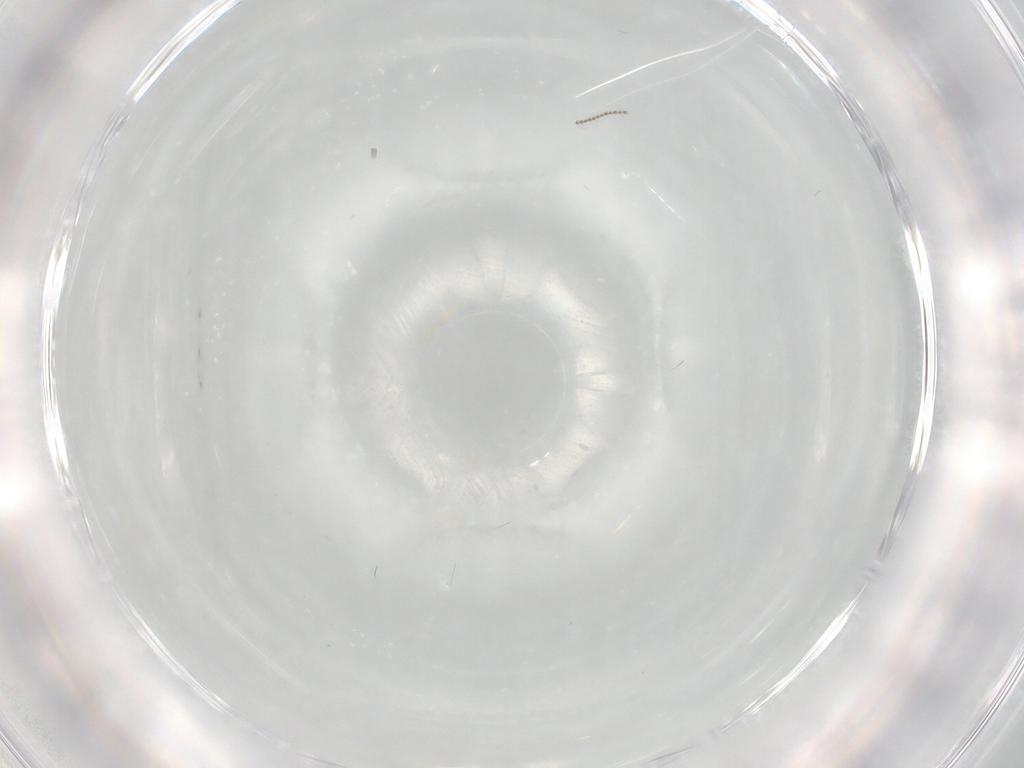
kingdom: Animalia
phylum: Arthropoda
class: Insecta
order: Diptera
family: Cecidomyiidae
